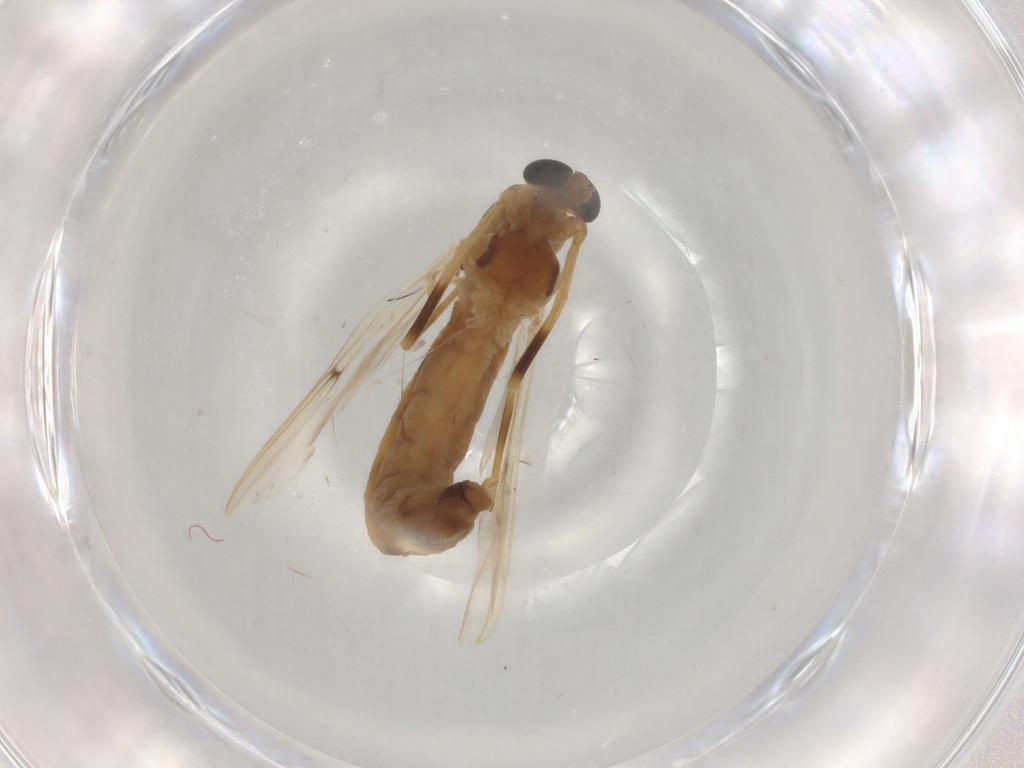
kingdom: Animalia
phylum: Arthropoda
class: Insecta
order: Diptera
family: Cecidomyiidae
